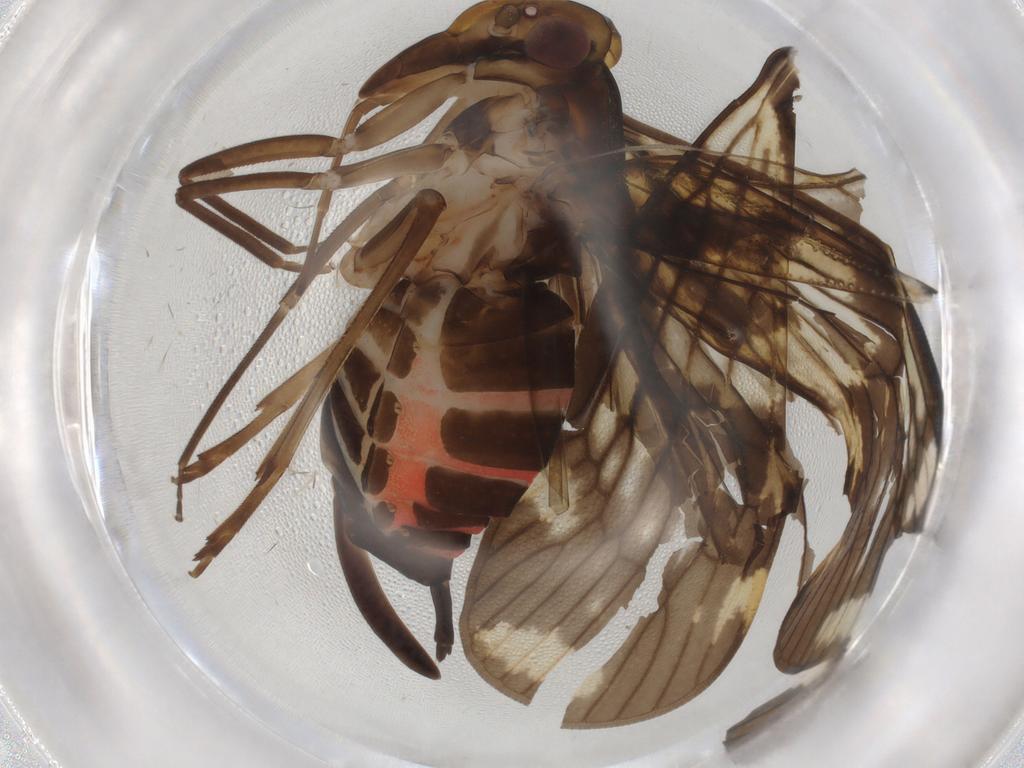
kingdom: Animalia
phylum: Arthropoda
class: Insecta
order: Hemiptera
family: Cixiidae
